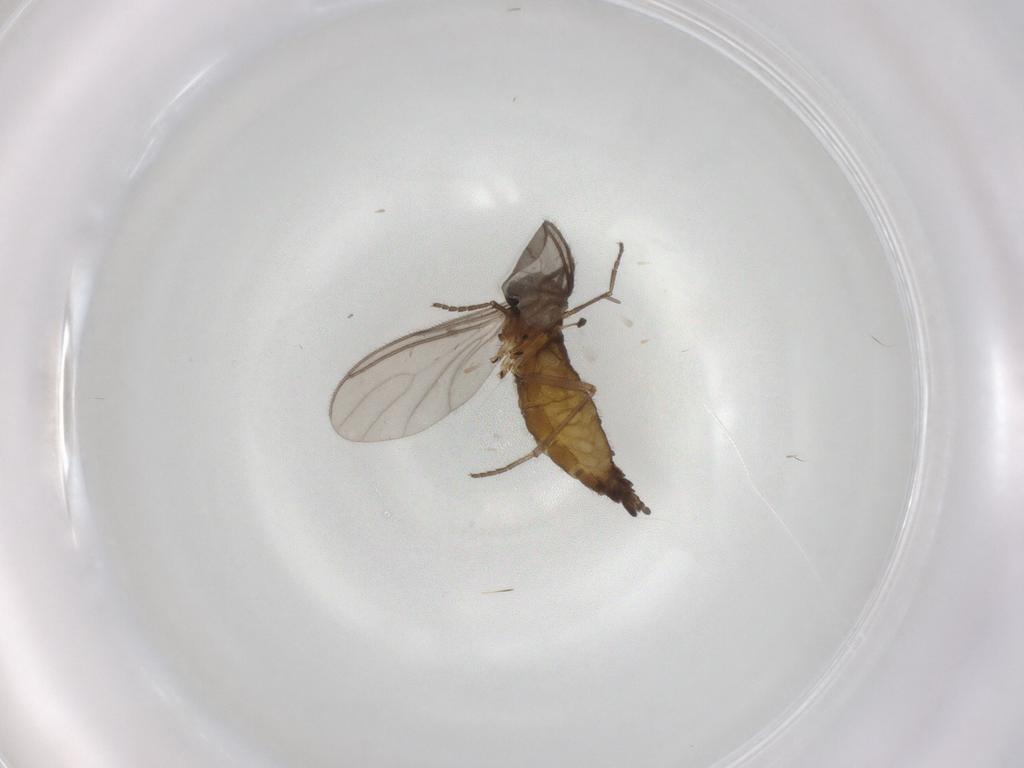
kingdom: Animalia
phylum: Arthropoda
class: Insecta
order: Diptera
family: Sciaridae
